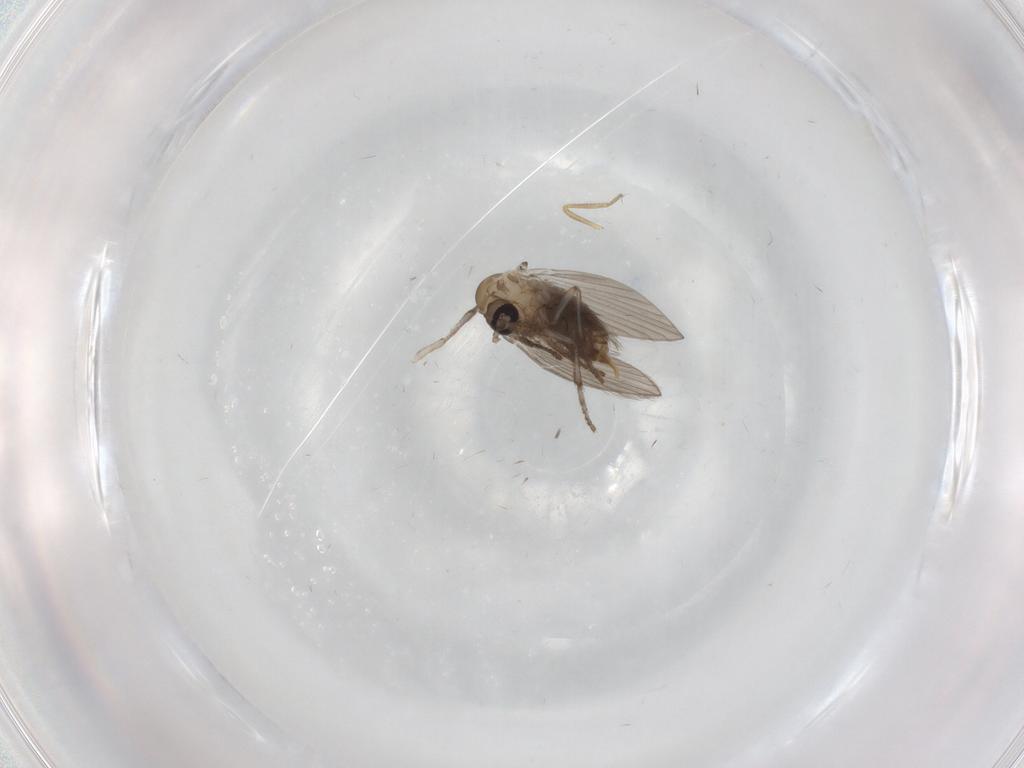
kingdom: Animalia
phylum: Arthropoda
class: Insecta
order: Diptera
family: Ceratopogonidae
